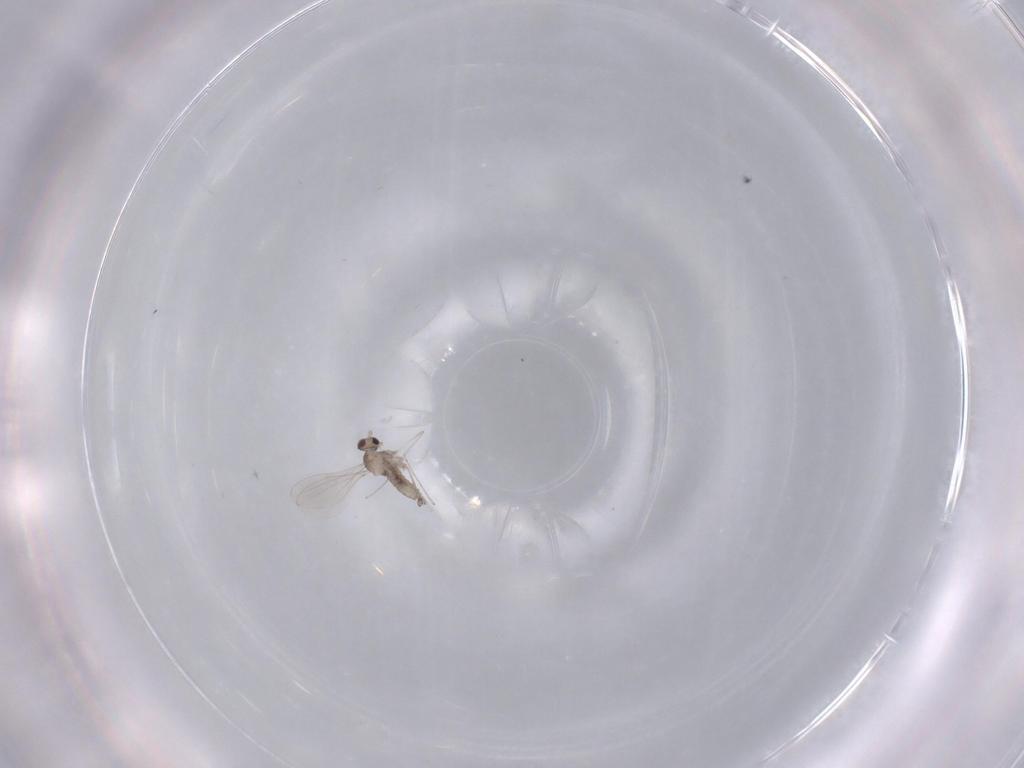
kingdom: Animalia
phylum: Arthropoda
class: Insecta
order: Diptera
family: Cecidomyiidae
